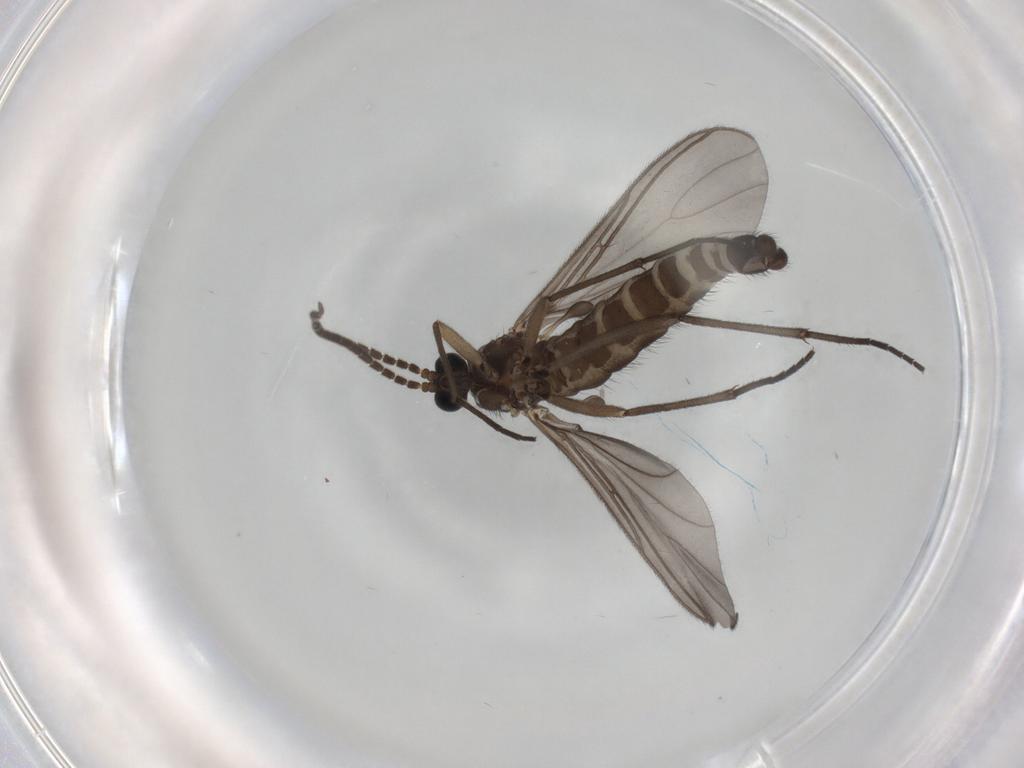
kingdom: Animalia
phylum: Arthropoda
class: Insecta
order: Diptera
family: Sciaridae
